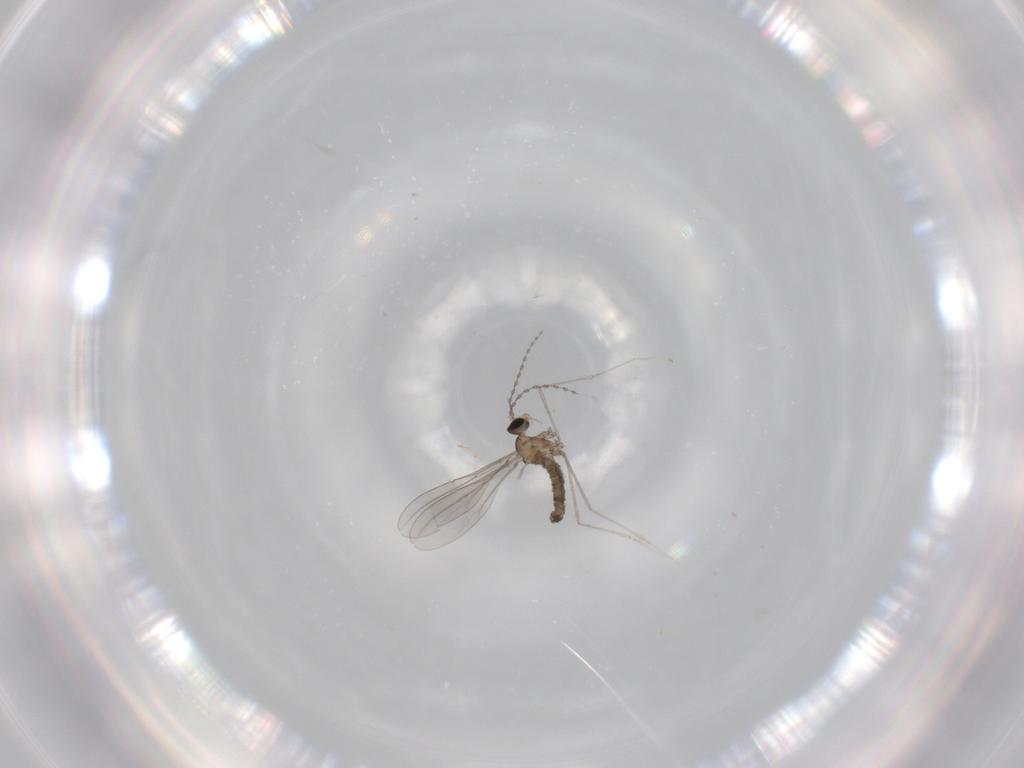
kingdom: Animalia
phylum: Arthropoda
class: Insecta
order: Diptera
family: Cecidomyiidae
